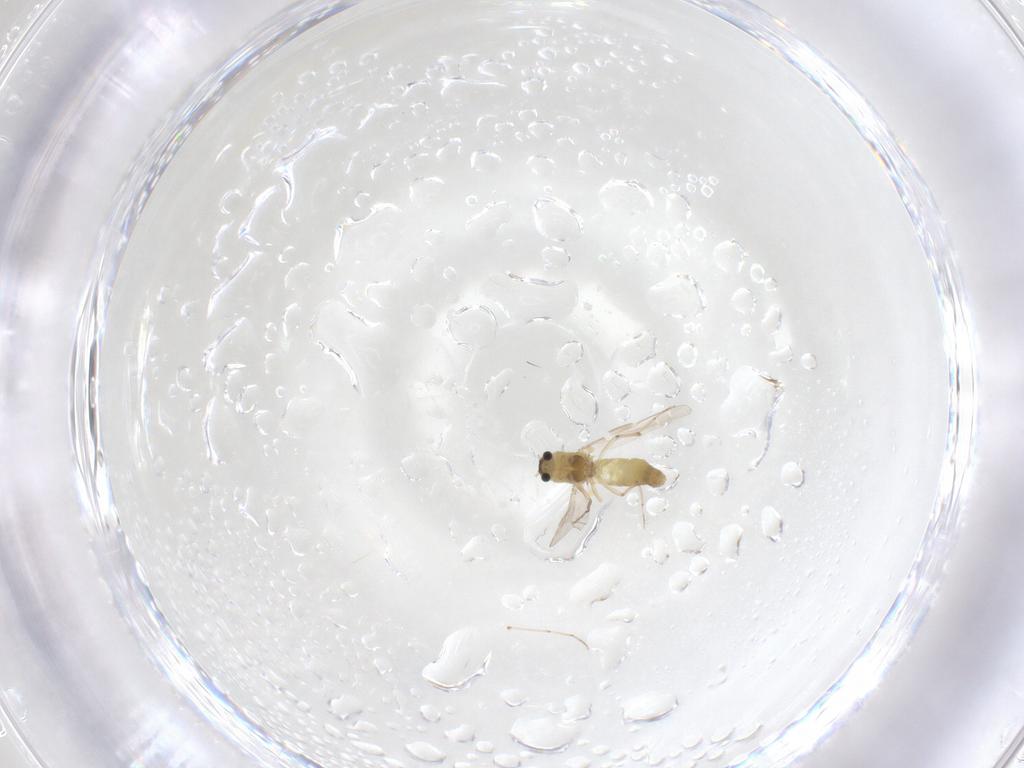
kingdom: Animalia
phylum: Arthropoda
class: Insecta
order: Diptera
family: Chironomidae
